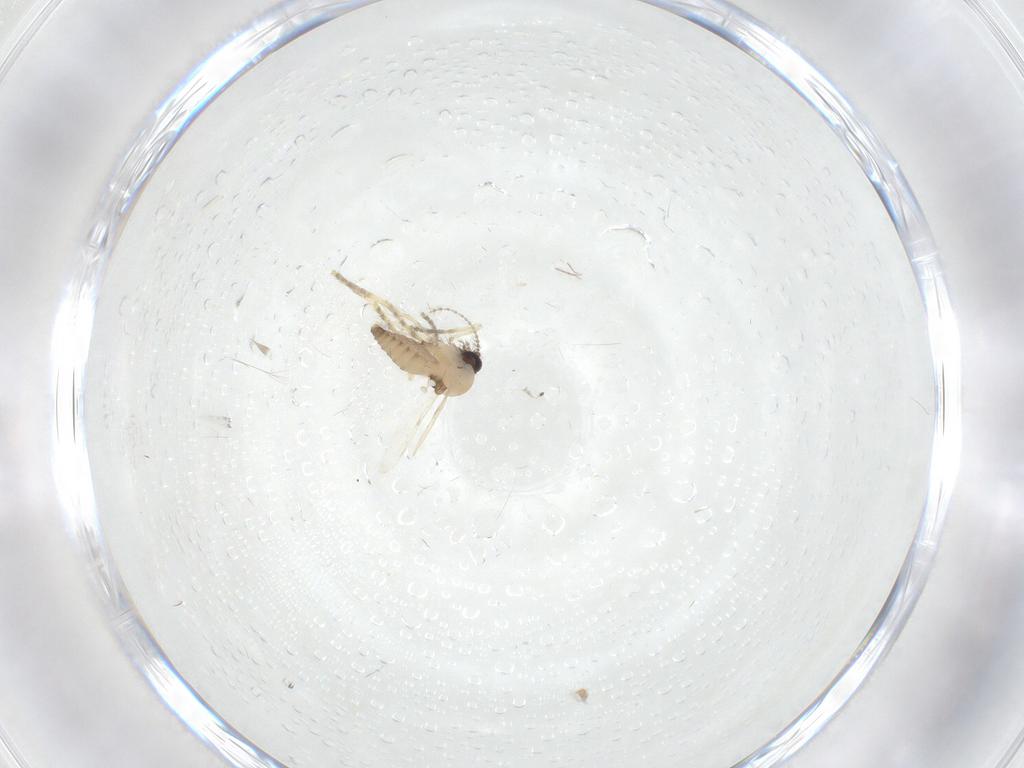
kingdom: Animalia
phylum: Arthropoda
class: Insecta
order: Diptera
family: Ceratopogonidae
